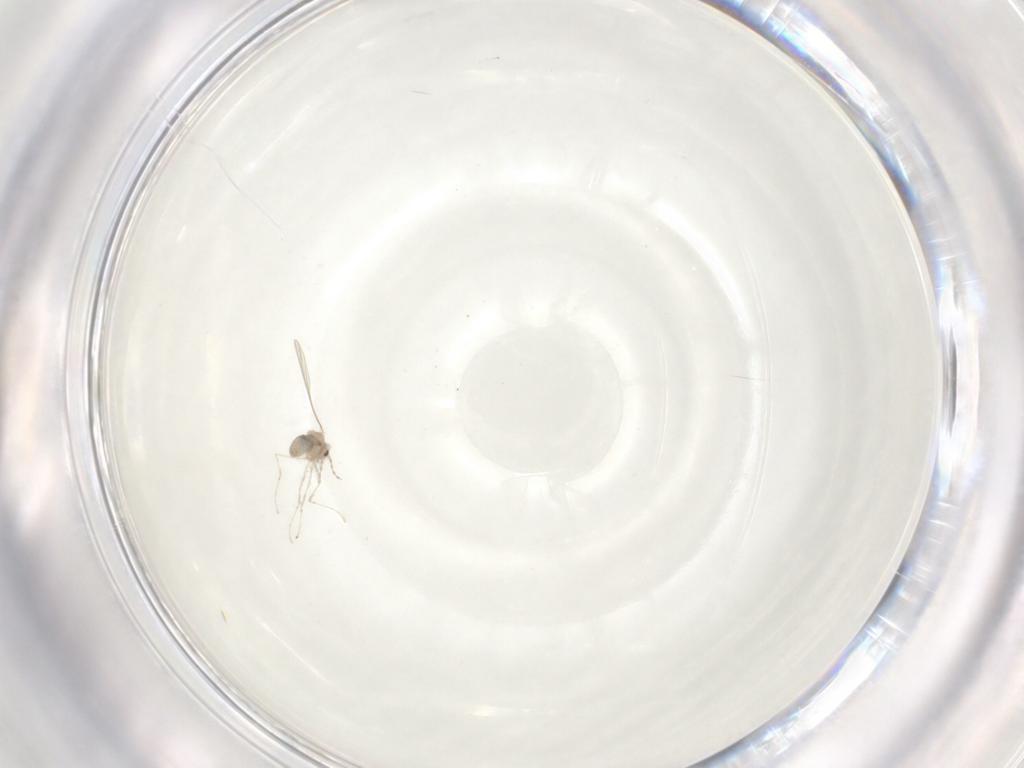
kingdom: Animalia
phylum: Arthropoda
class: Insecta
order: Diptera
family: Cecidomyiidae
